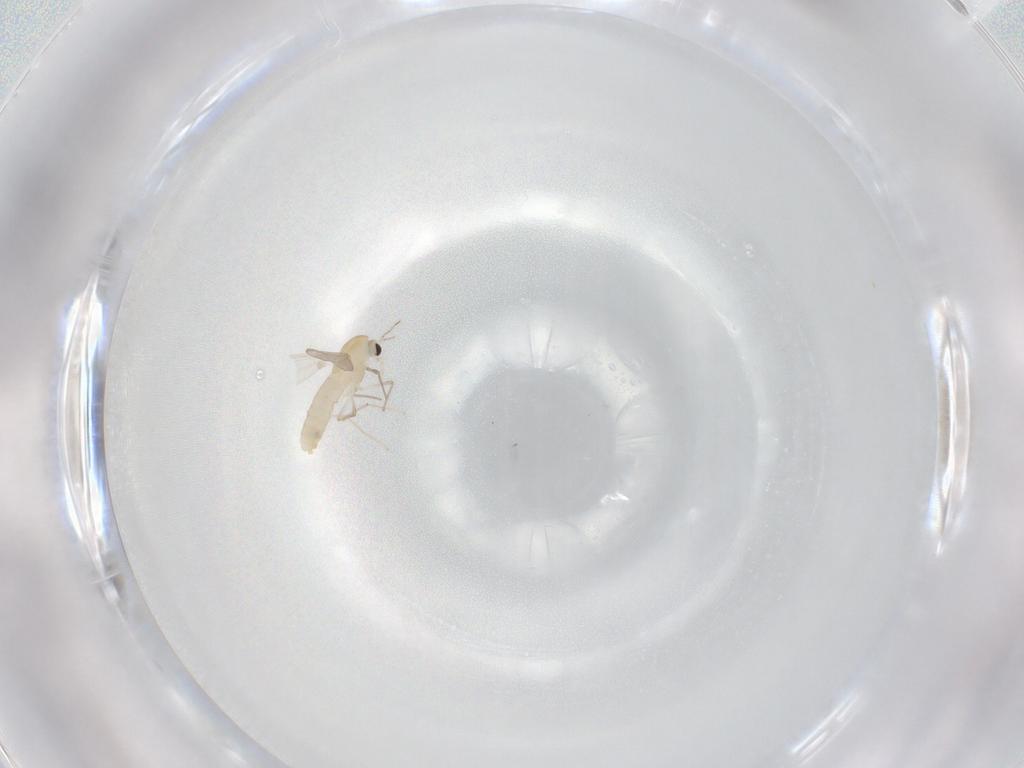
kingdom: Animalia
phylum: Arthropoda
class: Insecta
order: Diptera
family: Chironomidae
